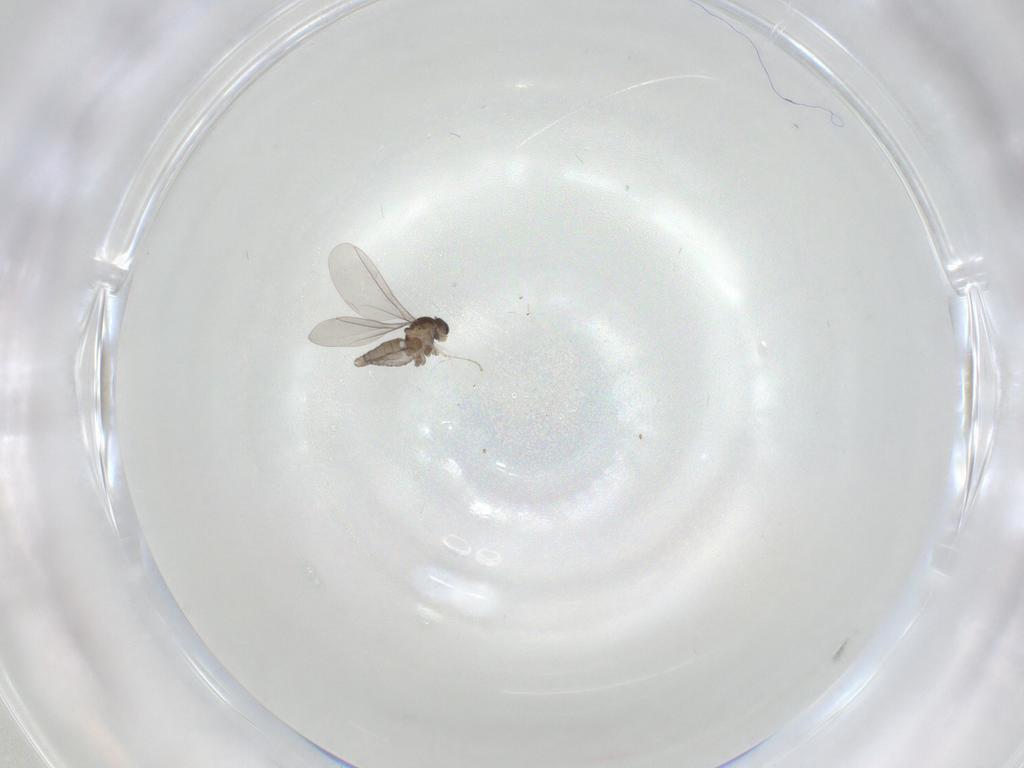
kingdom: Animalia
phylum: Arthropoda
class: Insecta
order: Diptera
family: Cecidomyiidae
